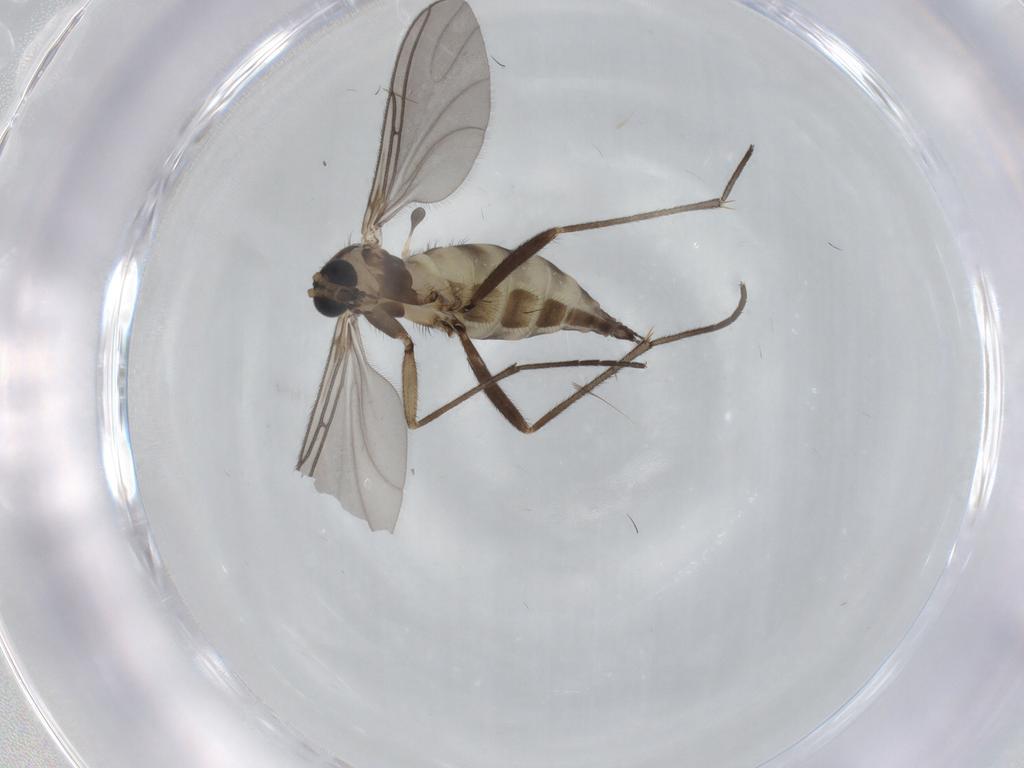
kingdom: Animalia
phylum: Arthropoda
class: Insecta
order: Diptera
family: Sciaridae
